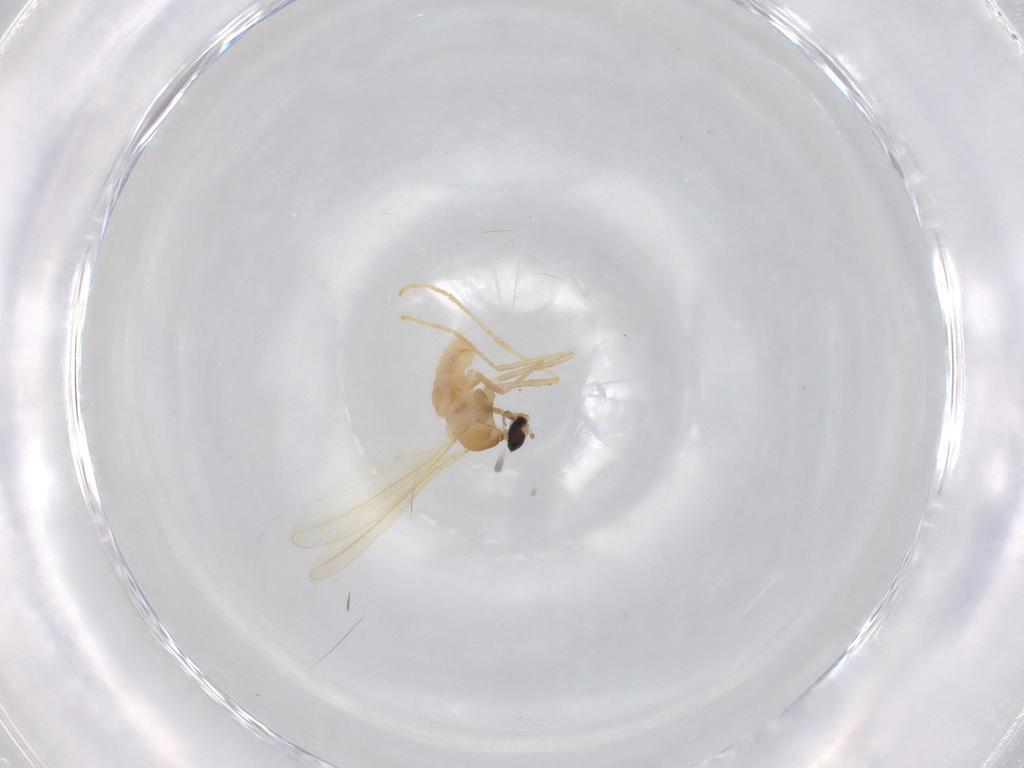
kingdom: Animalia
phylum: Arthropoda
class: Insecta
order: Diptera
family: Cecidomyiidae
